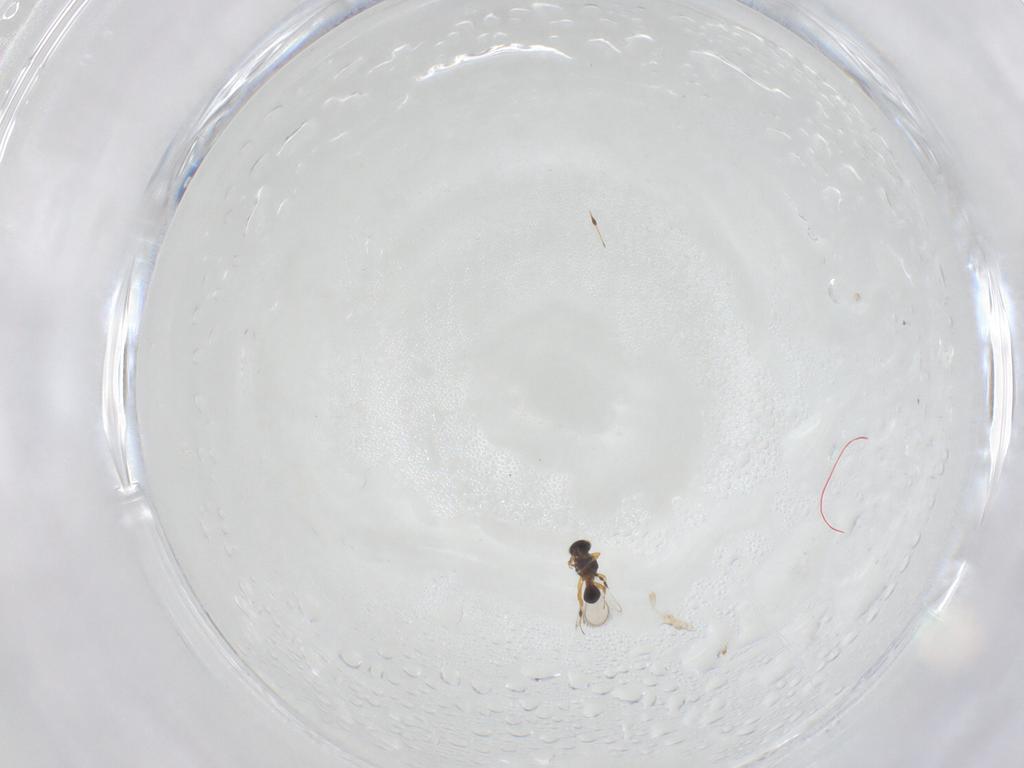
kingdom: Animalia
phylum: Arthropoda
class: Insecta
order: Hymenoptera
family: Platygastridae
